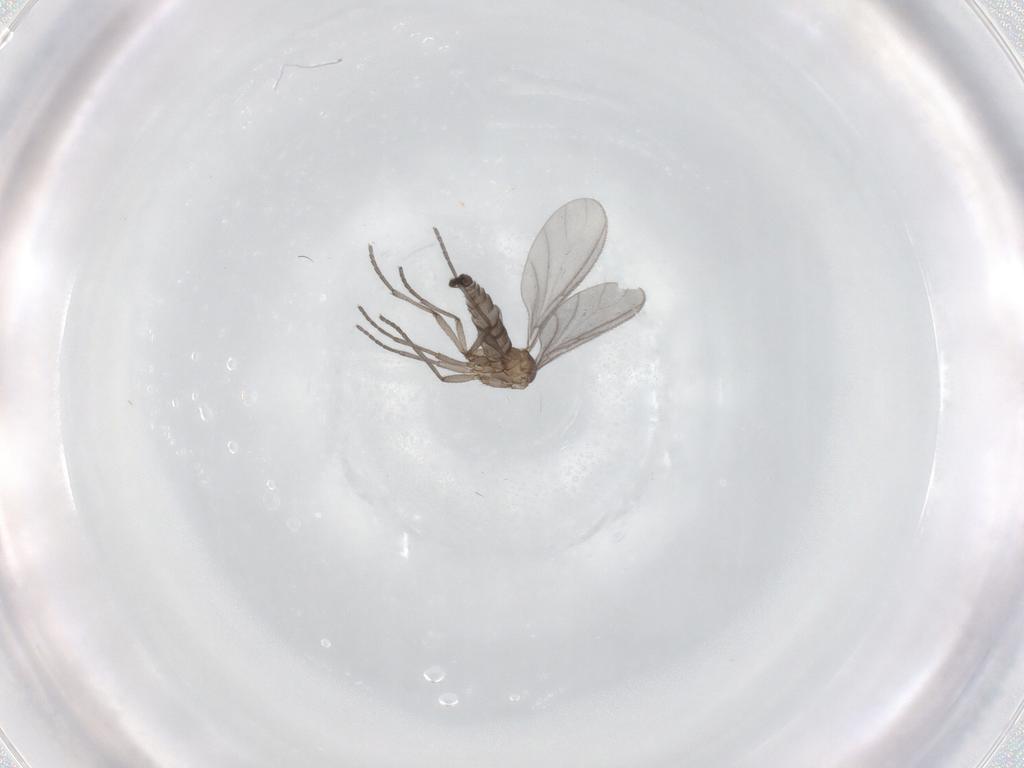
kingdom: Animalia
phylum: Arthropoda
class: Insecta
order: Diptera
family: Sciaridae
